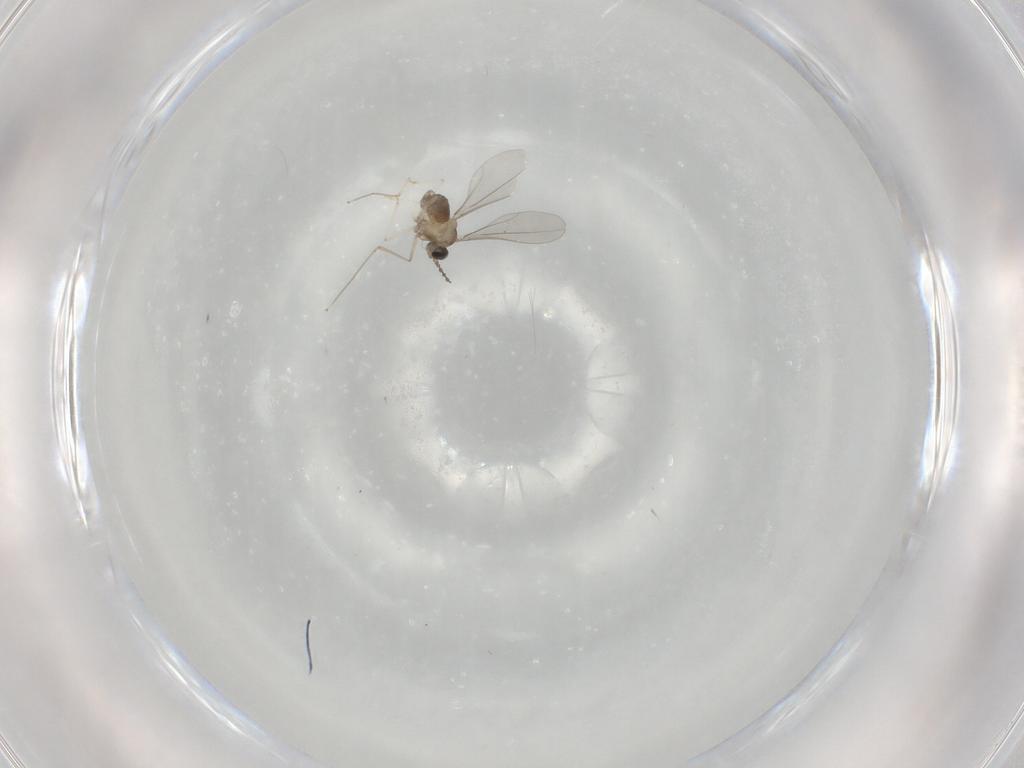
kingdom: Animalia
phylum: Arthropoda
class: Insecta
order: Diptera
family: Cecidomyiidae
